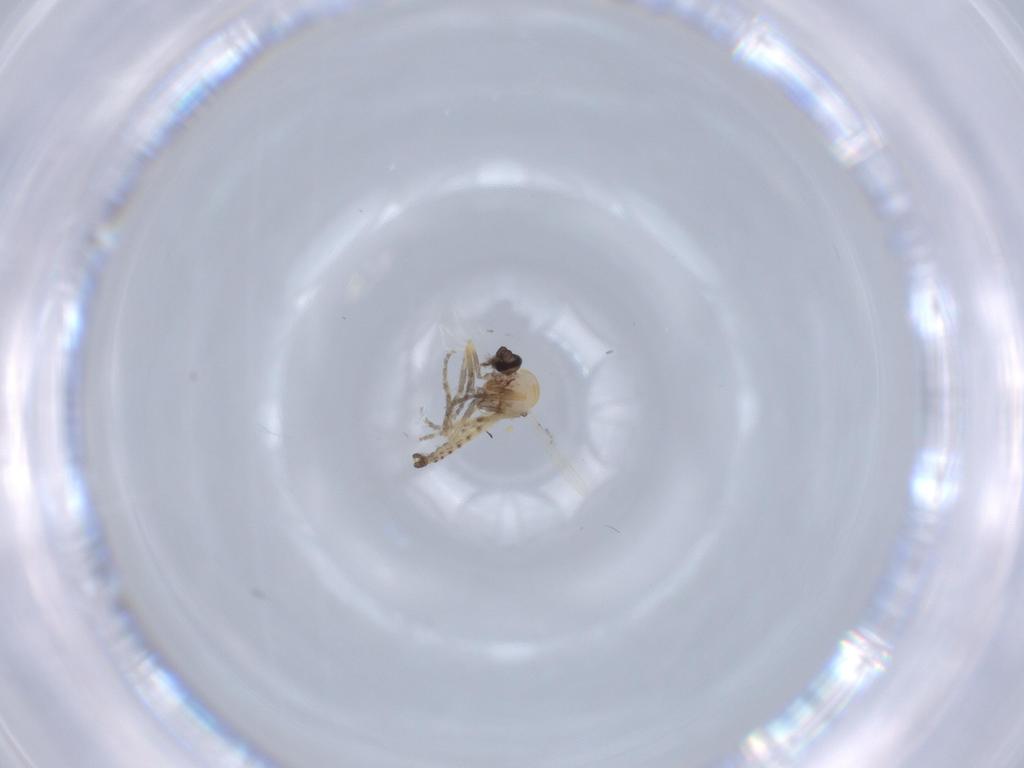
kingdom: Animalia
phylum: Arthropoda
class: Insecta
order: Diptera
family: Ceratopogonidae
